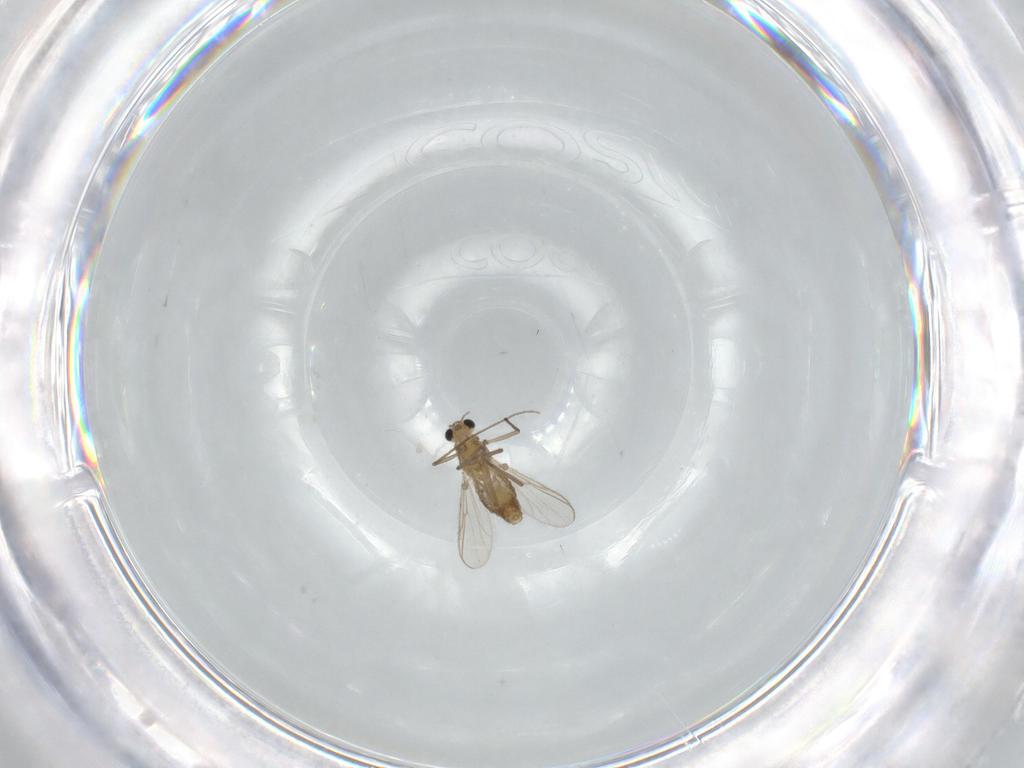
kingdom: Animalia
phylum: Arthropoda
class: Insecta
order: Diptera
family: Chironomidae
